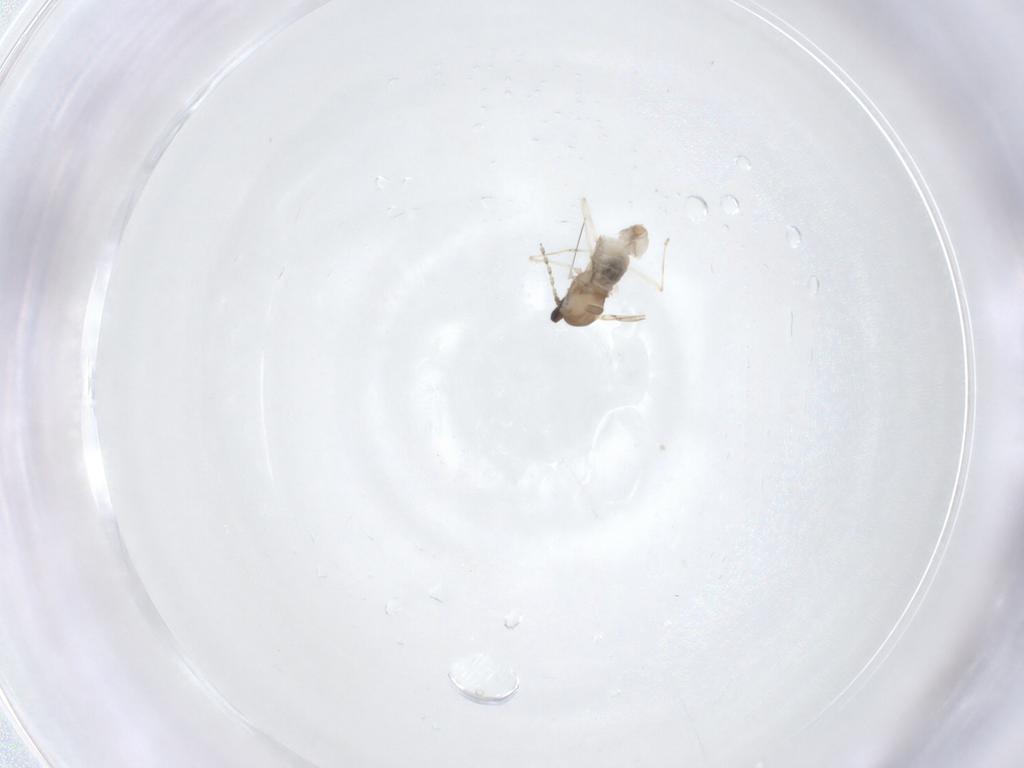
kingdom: Animalia
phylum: Arthropoda
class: Insecta
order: Diptera
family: Cecidomyiidae
